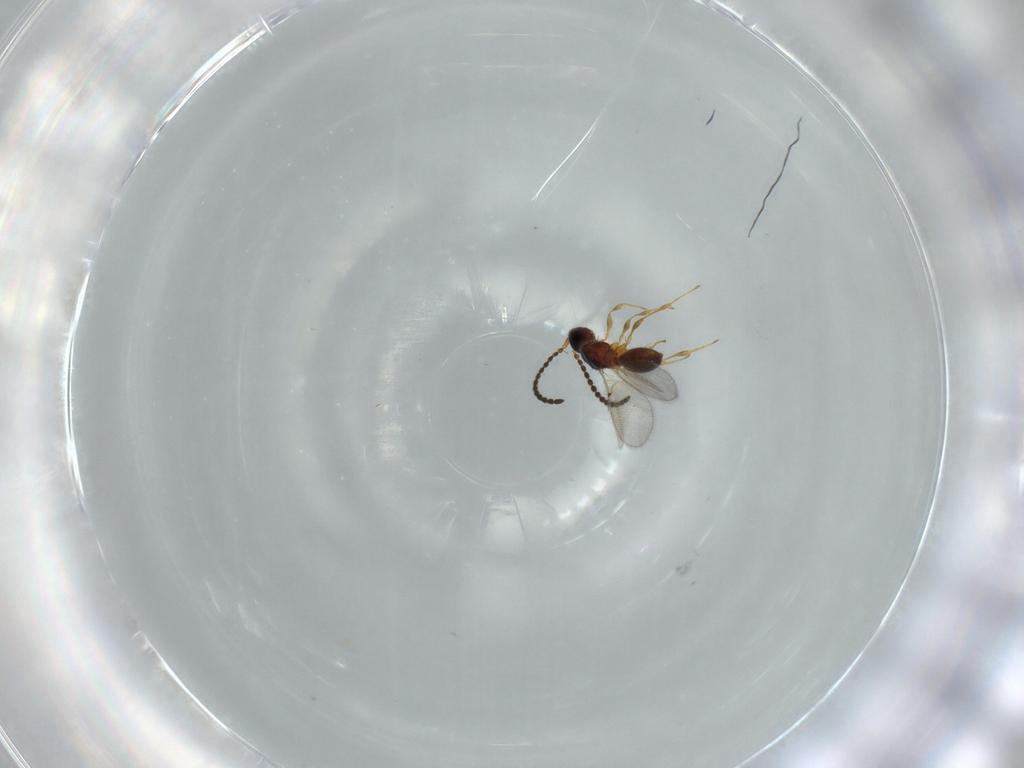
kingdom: Animalia
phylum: Arthropoda
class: Insecta
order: Hymenoptera
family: Diapriidae
